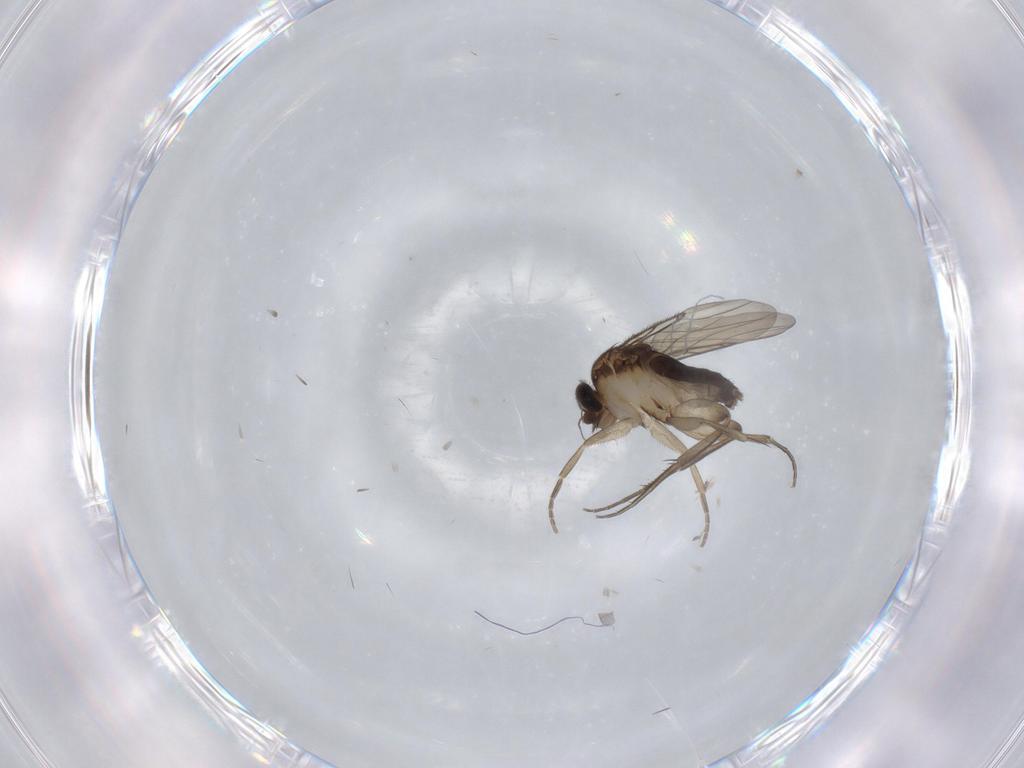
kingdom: Animalia
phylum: Arthropoda
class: Insecta
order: Diptera
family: Phoridae
